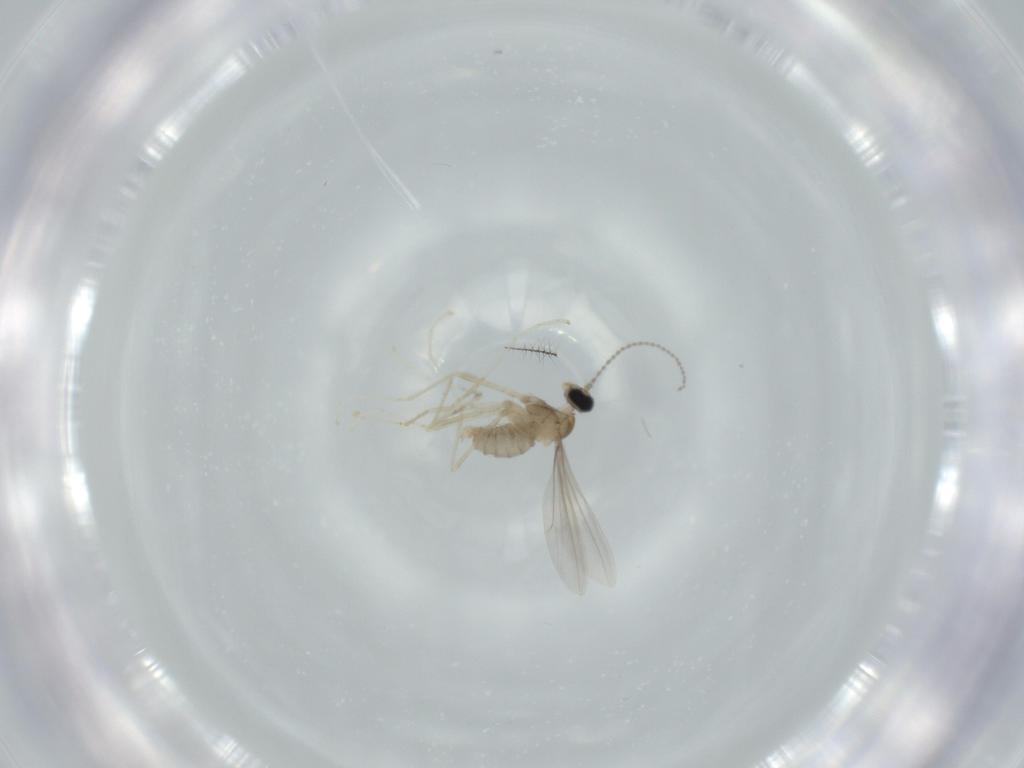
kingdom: Animalia
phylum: Arthropoda
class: Insecta
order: Diptera
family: Cecidomyiidae
